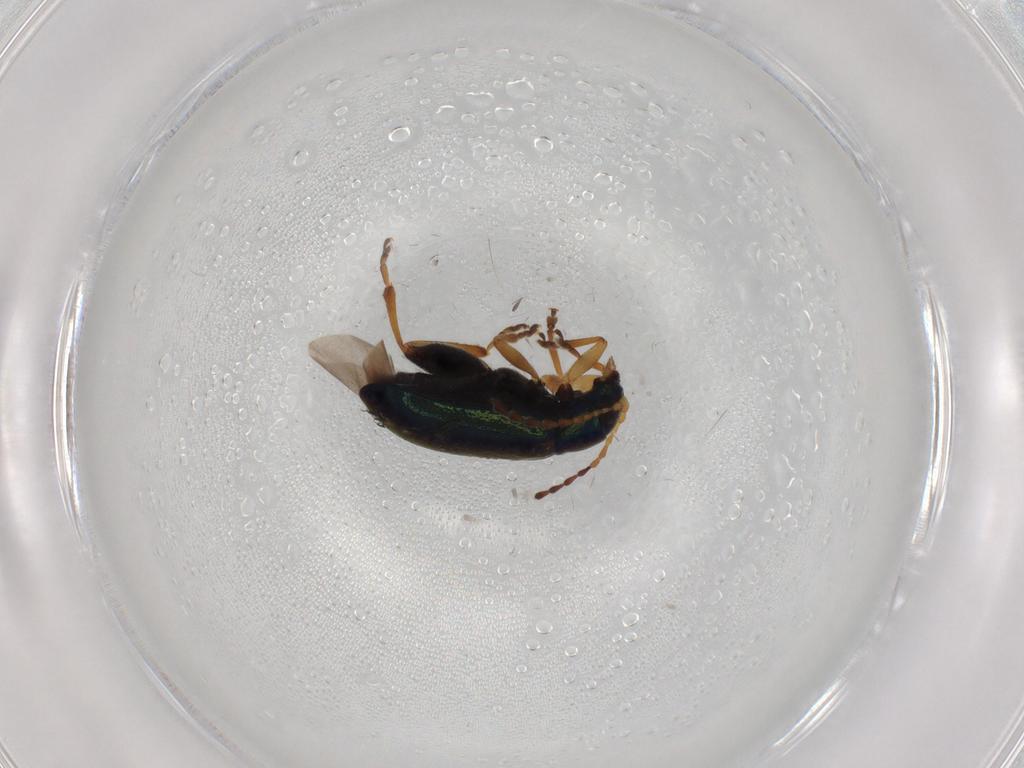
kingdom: Animalia
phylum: Arthropoda
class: Insecta
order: Coleoptera
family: Chrysomelidae
